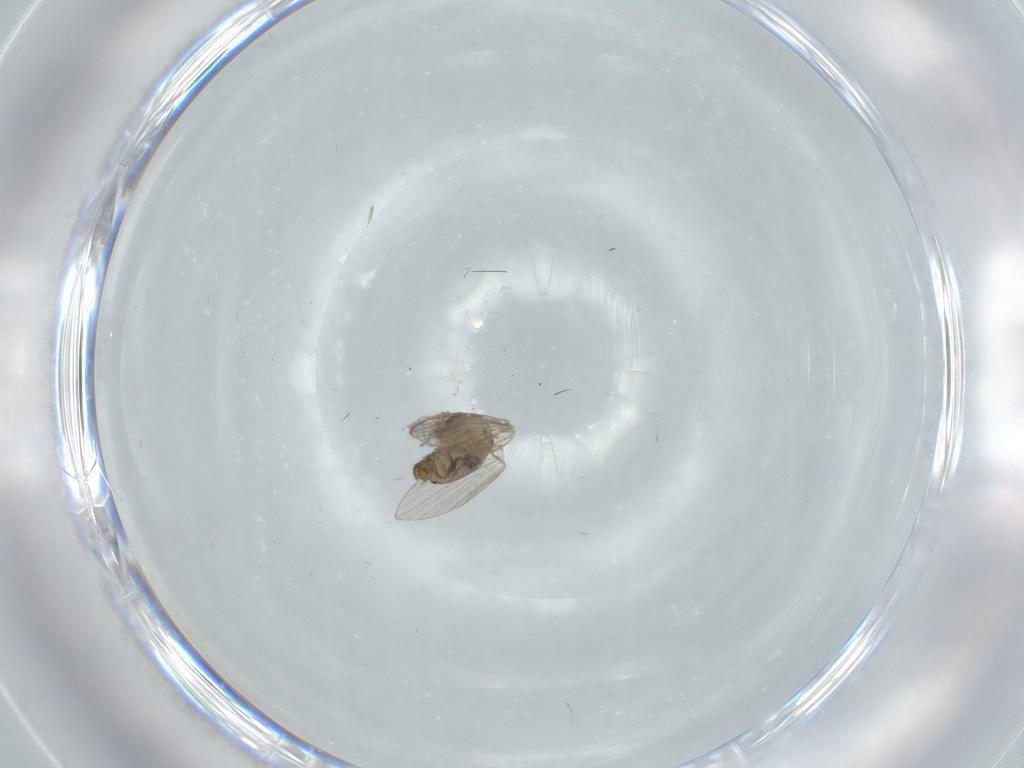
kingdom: Animalia
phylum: Arthropoda
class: Insecta
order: Diptera
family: Psychodidae
